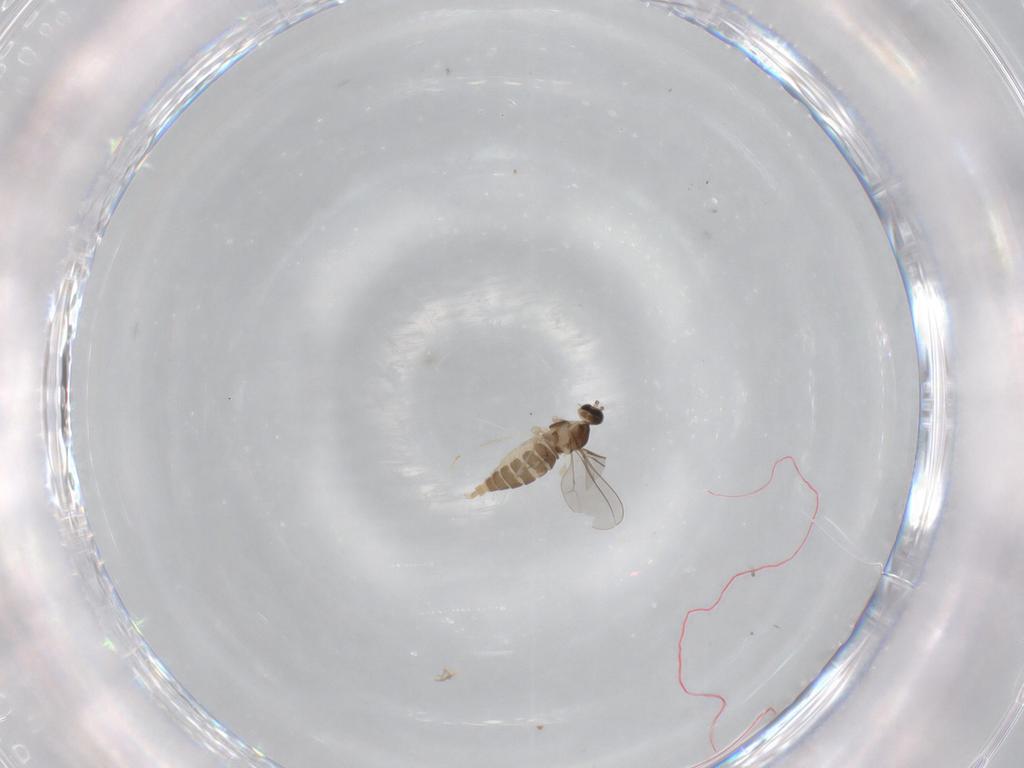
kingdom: Animalia
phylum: Arthropoda
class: Insecta
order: Diptera
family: Cecidomyiidae
